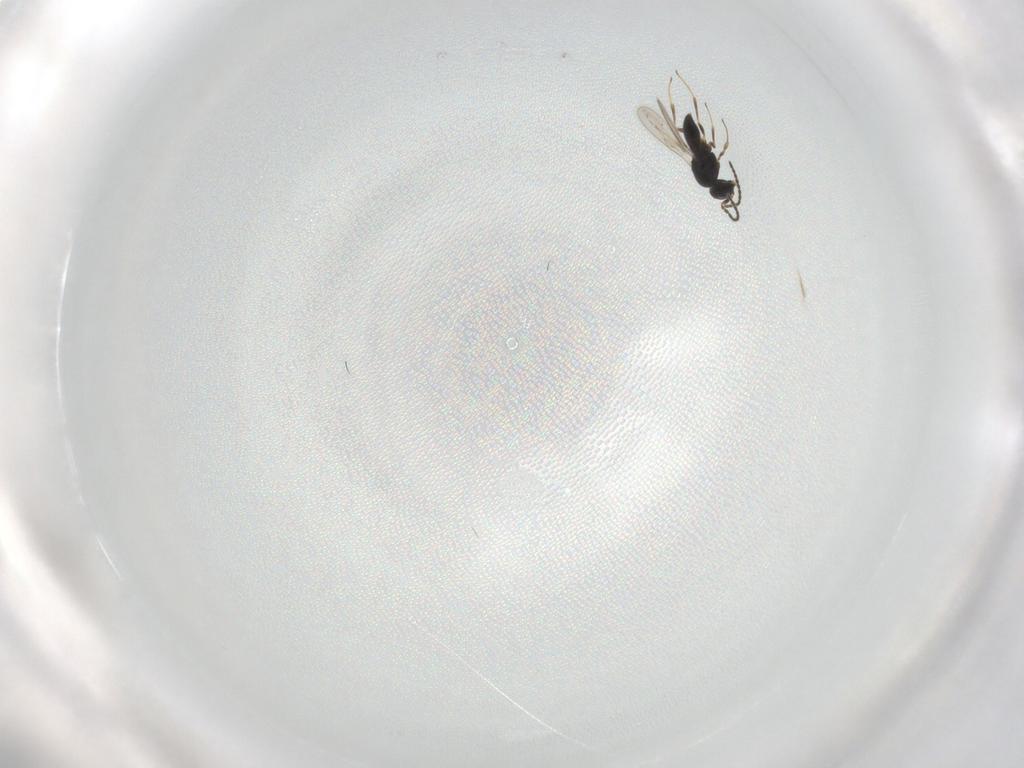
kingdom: Animalia
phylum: Arthropoda
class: Insecta
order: Hymenoptera
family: Scelionidae
